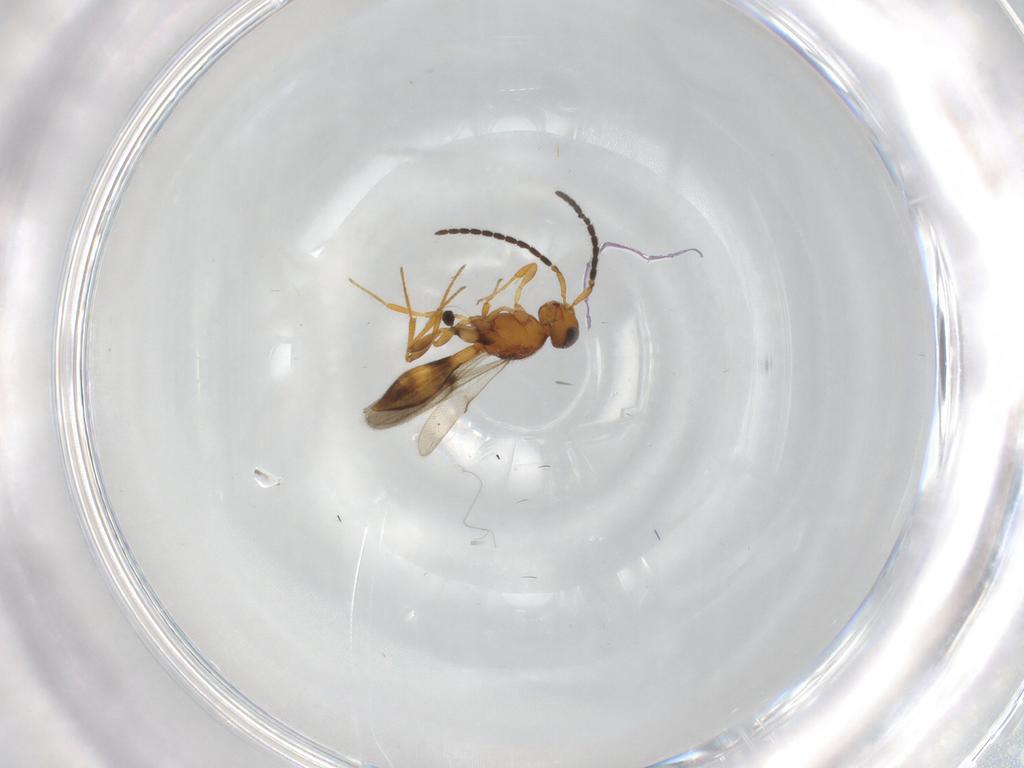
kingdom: Animalia
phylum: Arthropoda
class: Insecta
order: Hymenoptera
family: Scelionidae
